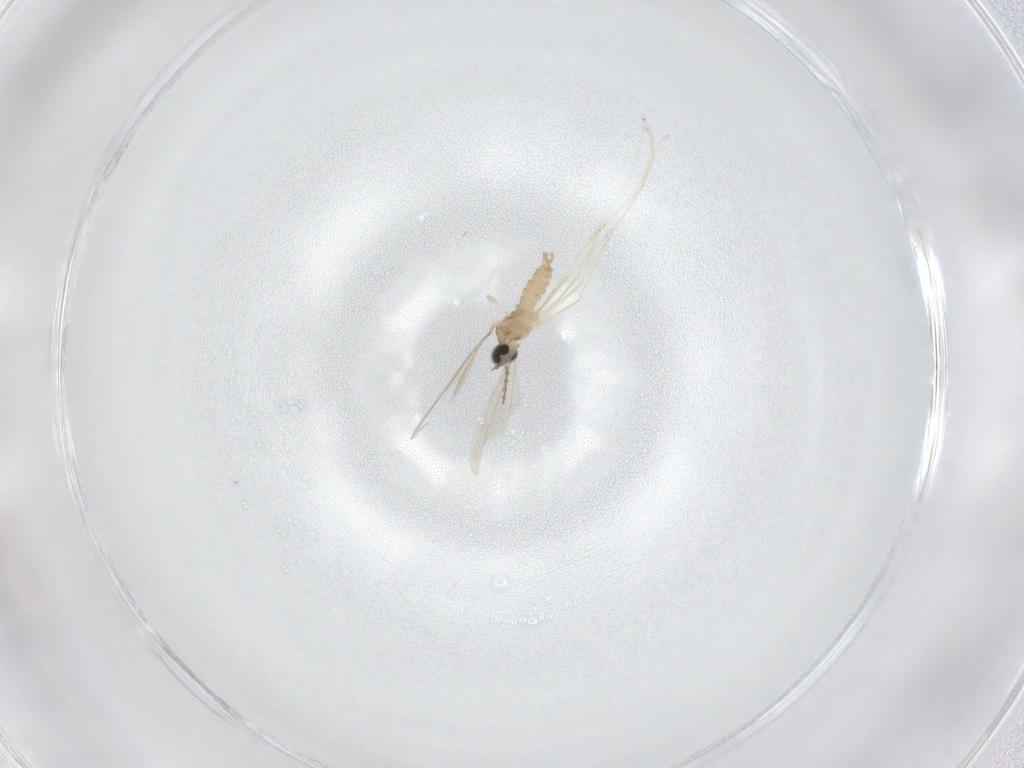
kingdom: Animalia
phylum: Arthropoda
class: Insecta
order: Diptera
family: Cecidomyiidae
